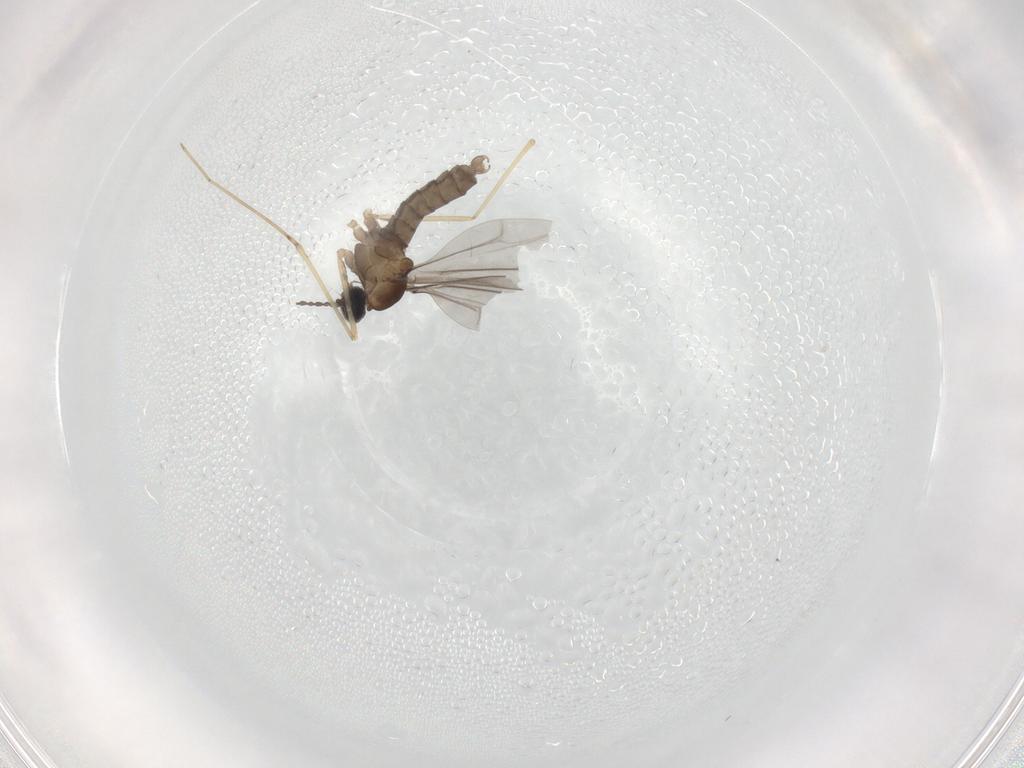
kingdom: Animalia
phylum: Arthropoda
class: Insecta
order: Diptera
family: Cecidomyiidae
